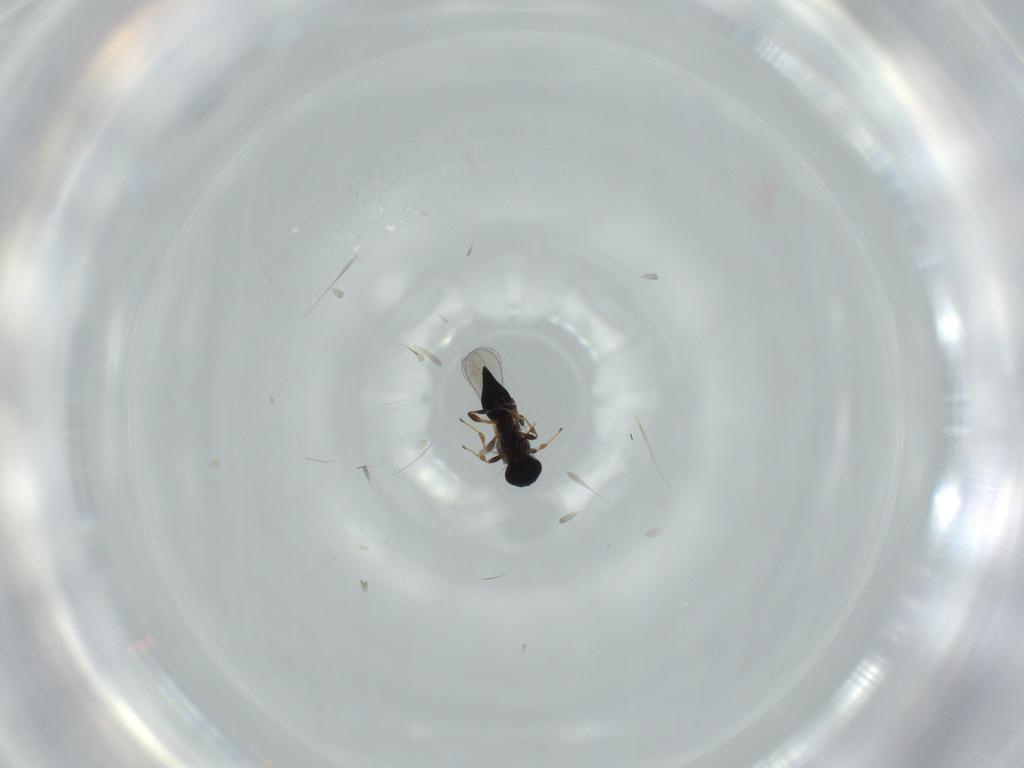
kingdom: Animalia
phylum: Arthropoda
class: Insecta
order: Hymenoptera
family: Platygastridae
